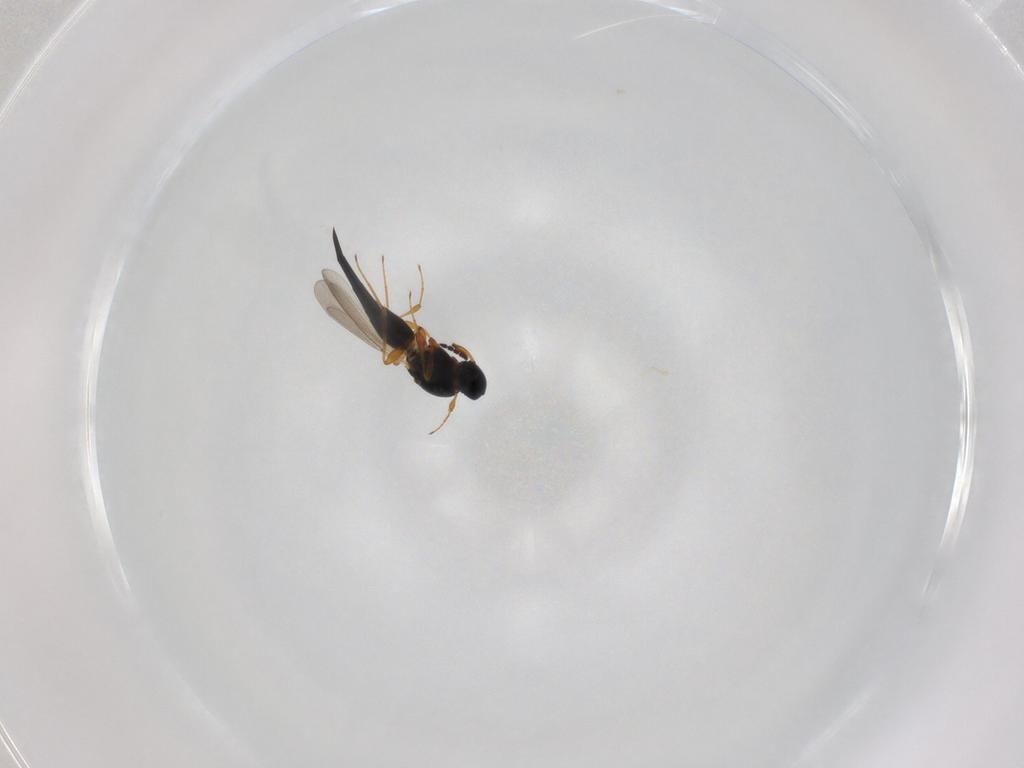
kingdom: Animalia
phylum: Arthropoda
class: Insecta
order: Hymenoptera
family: Platygastridae
